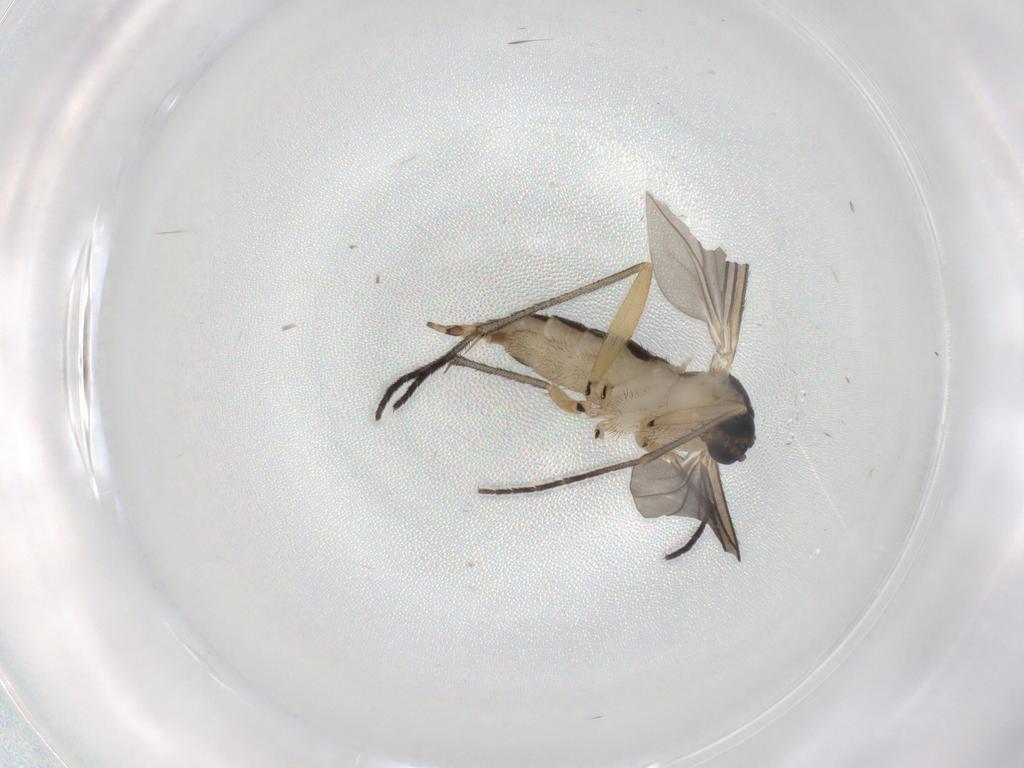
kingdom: Animalia
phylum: Arthropoda
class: Insecta
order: Diptera
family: Sciaridae
